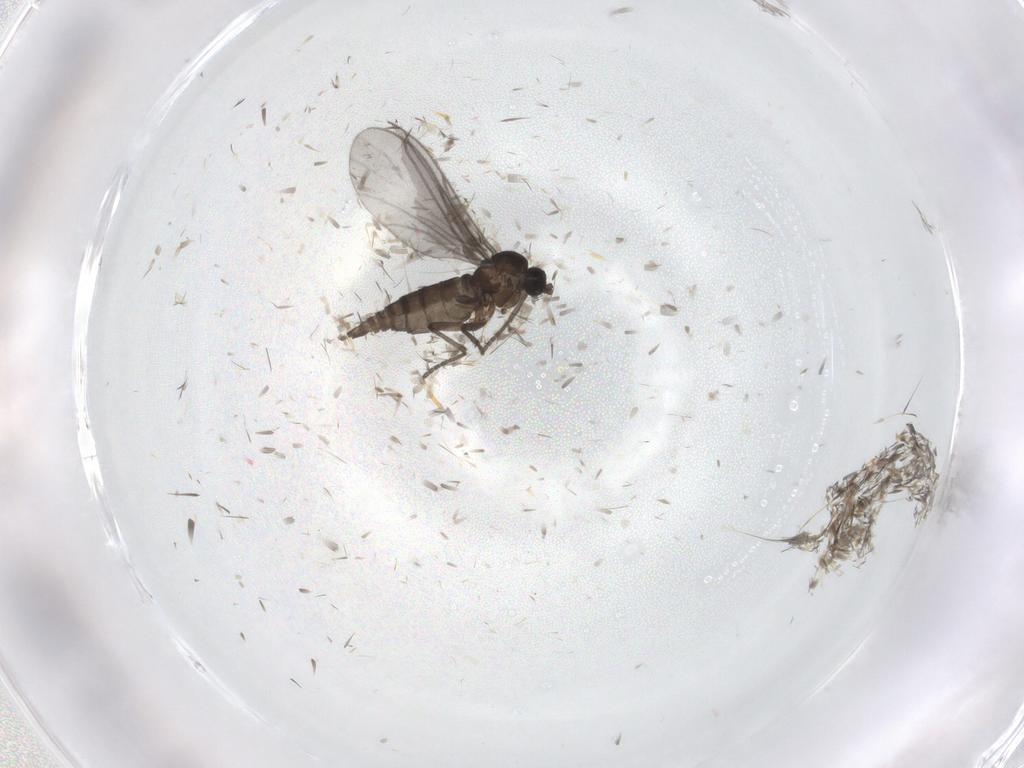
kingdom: Animalia
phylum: Arthropoda
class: Insecta
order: Diptera
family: Sciaridae
